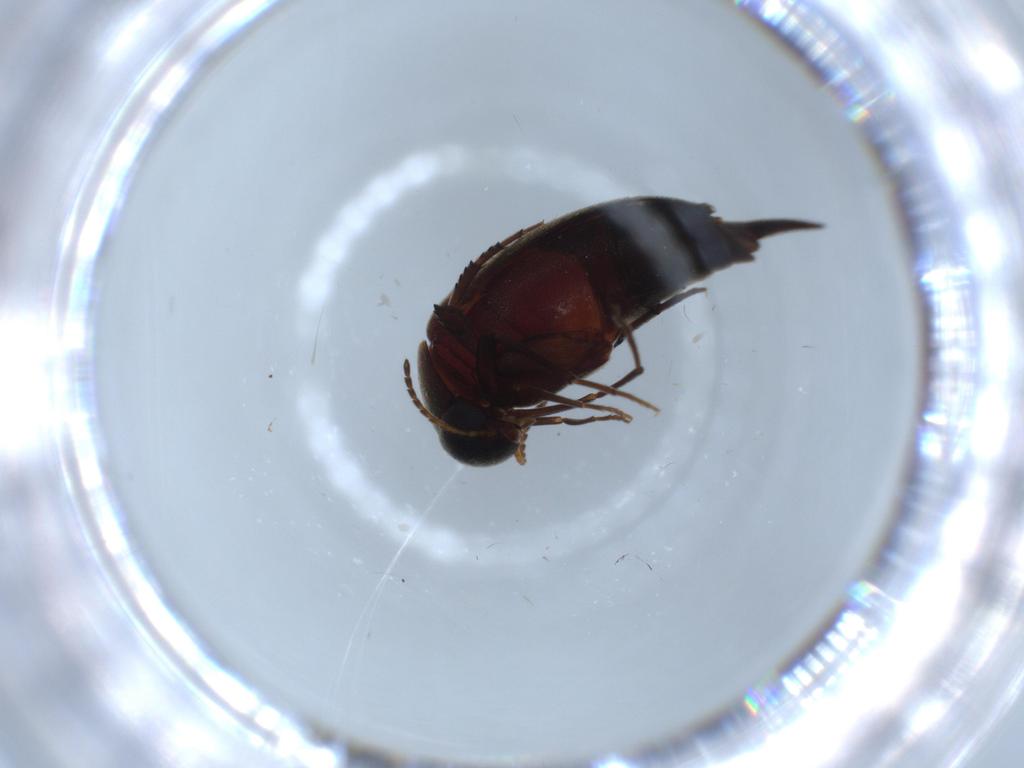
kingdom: Animalia
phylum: Arthropoda
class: Insecta
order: Coleoptera
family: Mordellidae
